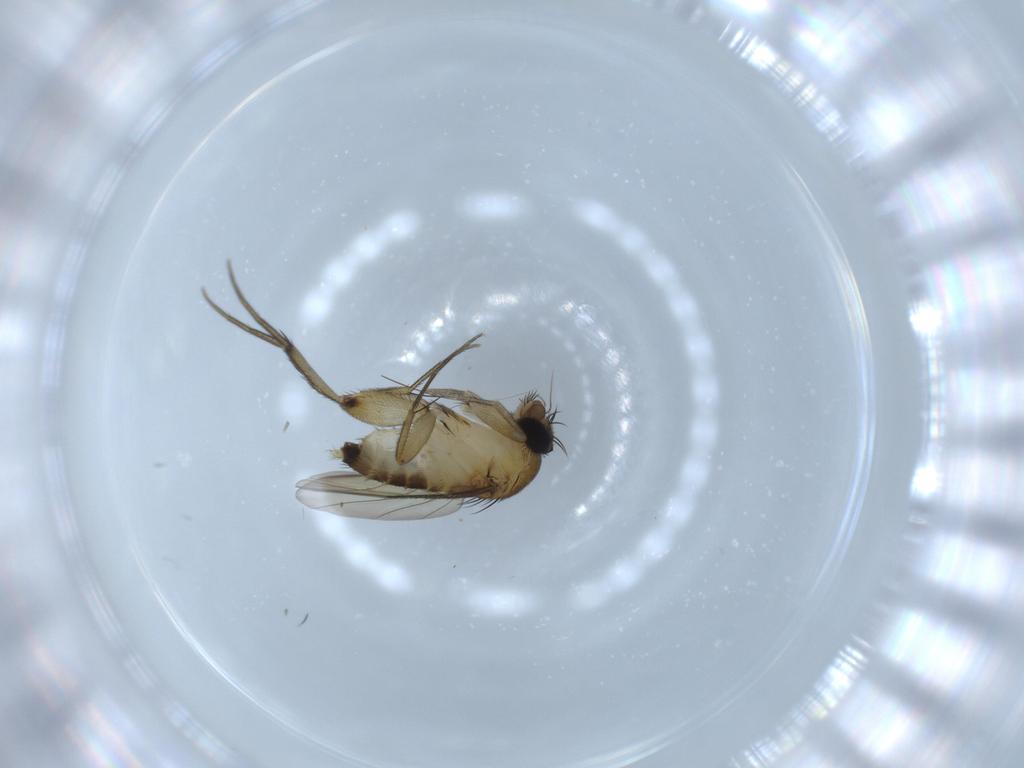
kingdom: Animalia
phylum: Arthropoda
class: Insecta
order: Diptera
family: Phoridae
